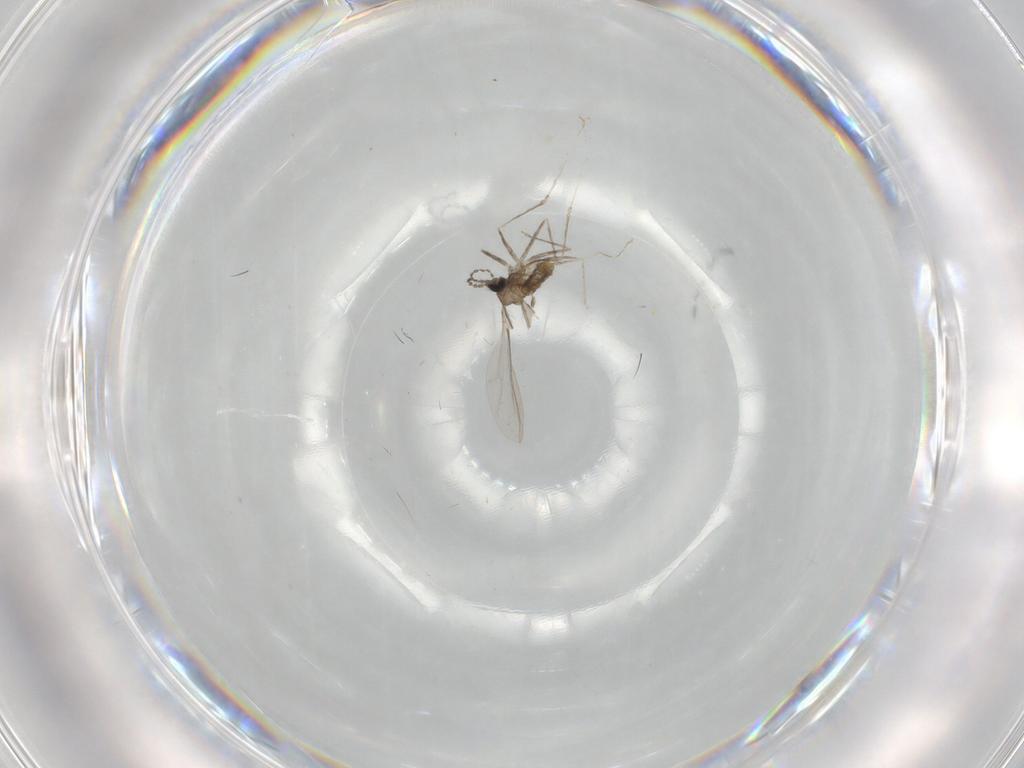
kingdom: Animalia
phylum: Arthropoda
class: Insecta
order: Diptera
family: Cecidomyiidae
